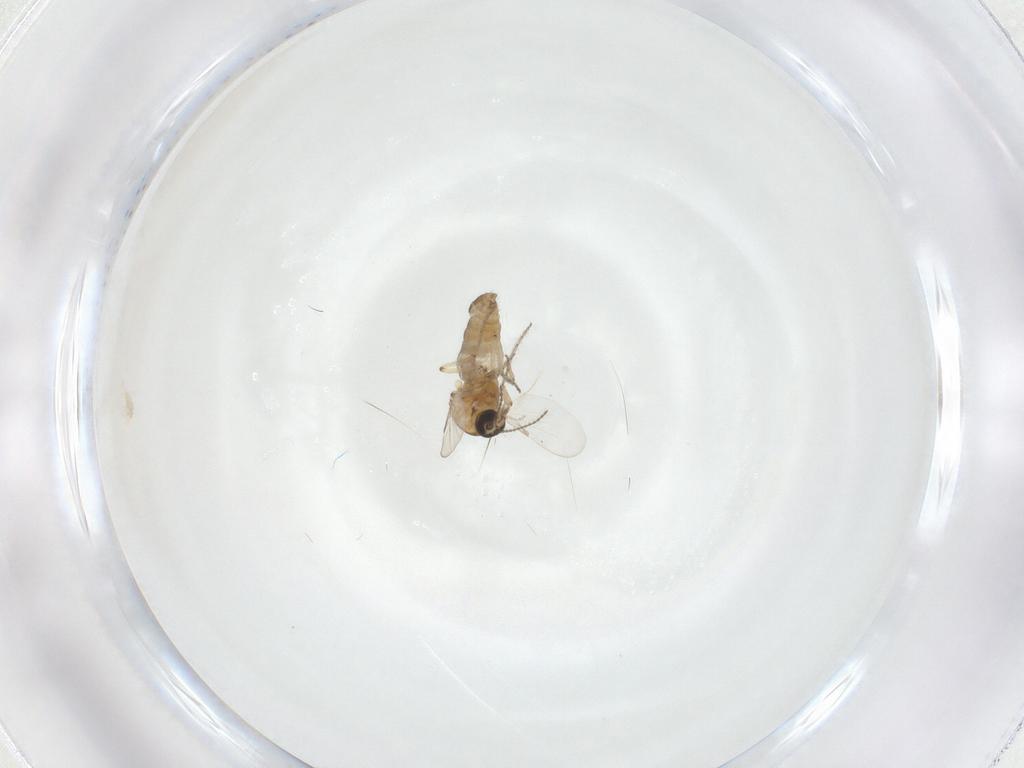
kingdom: Animalia
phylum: Arthropoda
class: Insecta
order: Diptera
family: Ceratopogonidae
